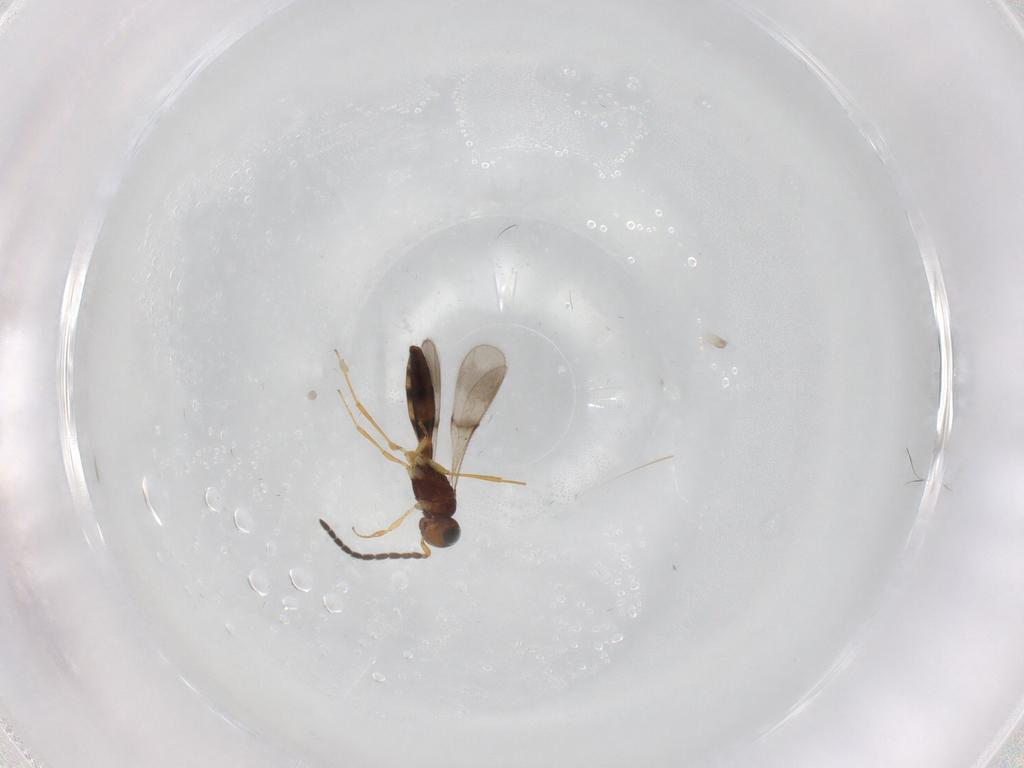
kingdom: Animalia
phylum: Arthropoda
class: Insecta
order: Hymenoptera
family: Scelionidae
